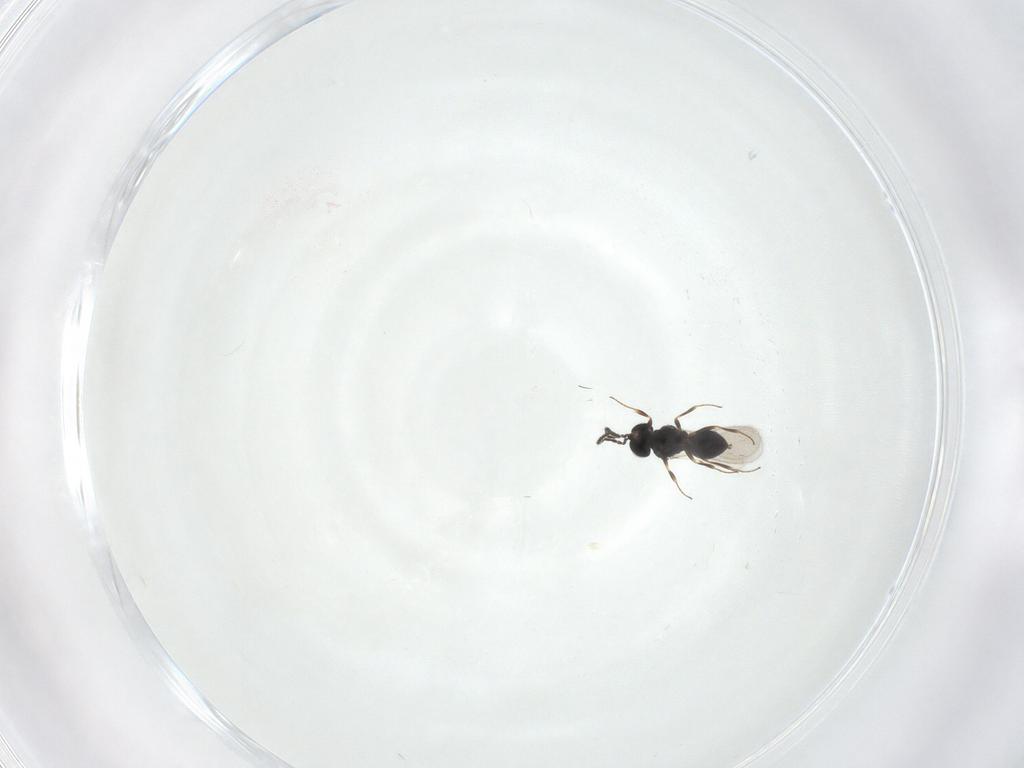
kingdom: Animalia
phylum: Arthropoda
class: Insecta
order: Hymenoptera
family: Scelionidae
